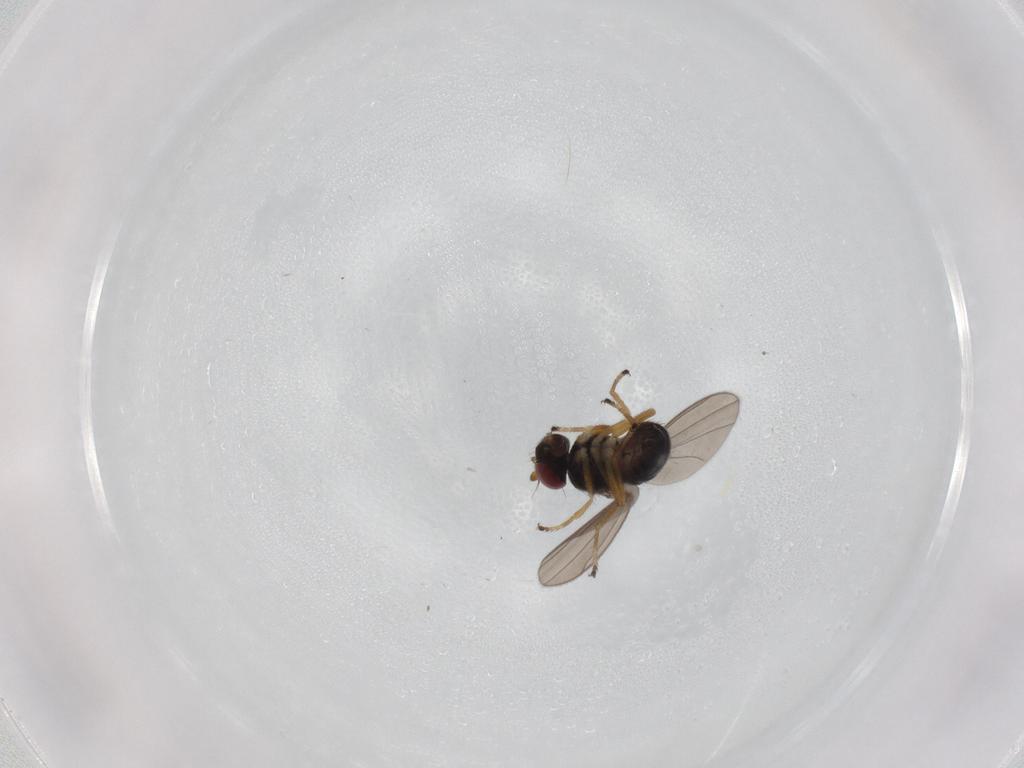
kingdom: Animalia
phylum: Arthropoda
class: Insecta
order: Diptera
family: Ephydridae
